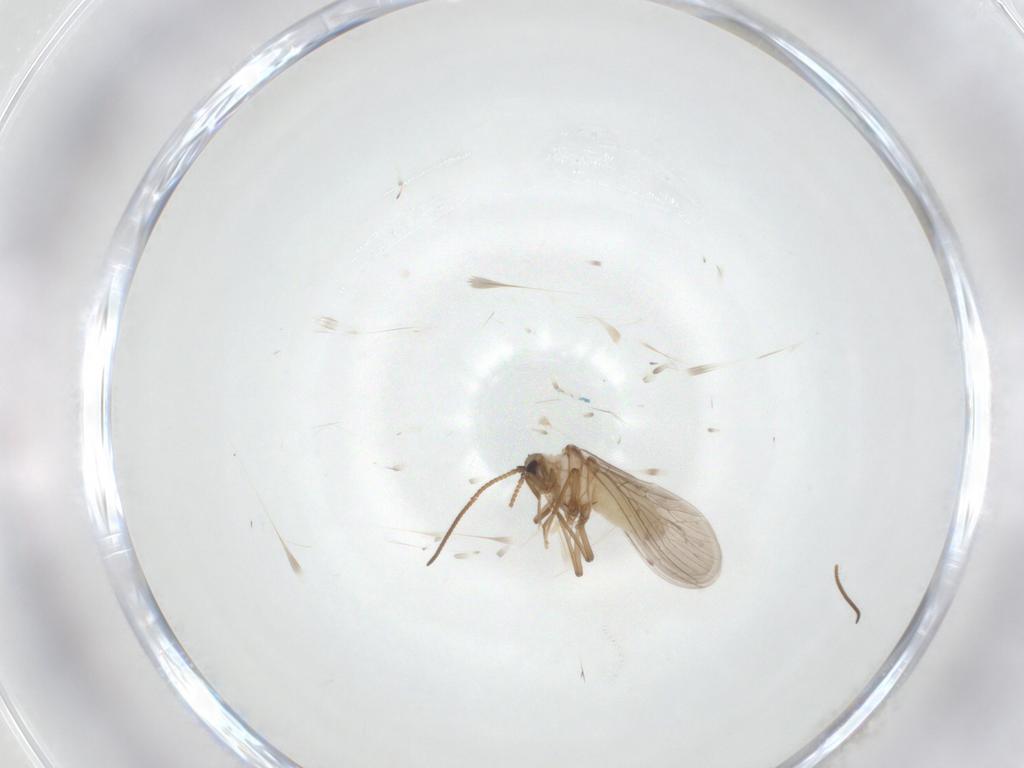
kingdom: Animalia
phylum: Arthropoda
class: Insecta
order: Neuroptera
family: Coniopterygidae
